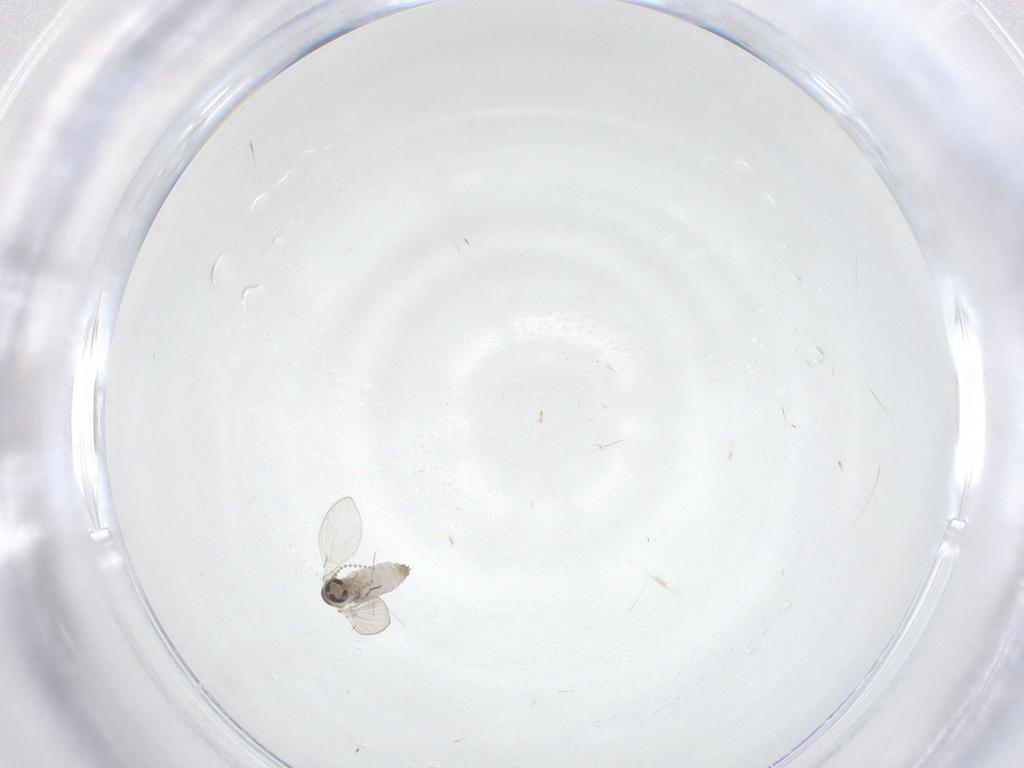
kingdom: Animalia
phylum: Arthropoda
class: Insecta
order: Diptera
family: Psychodidae
